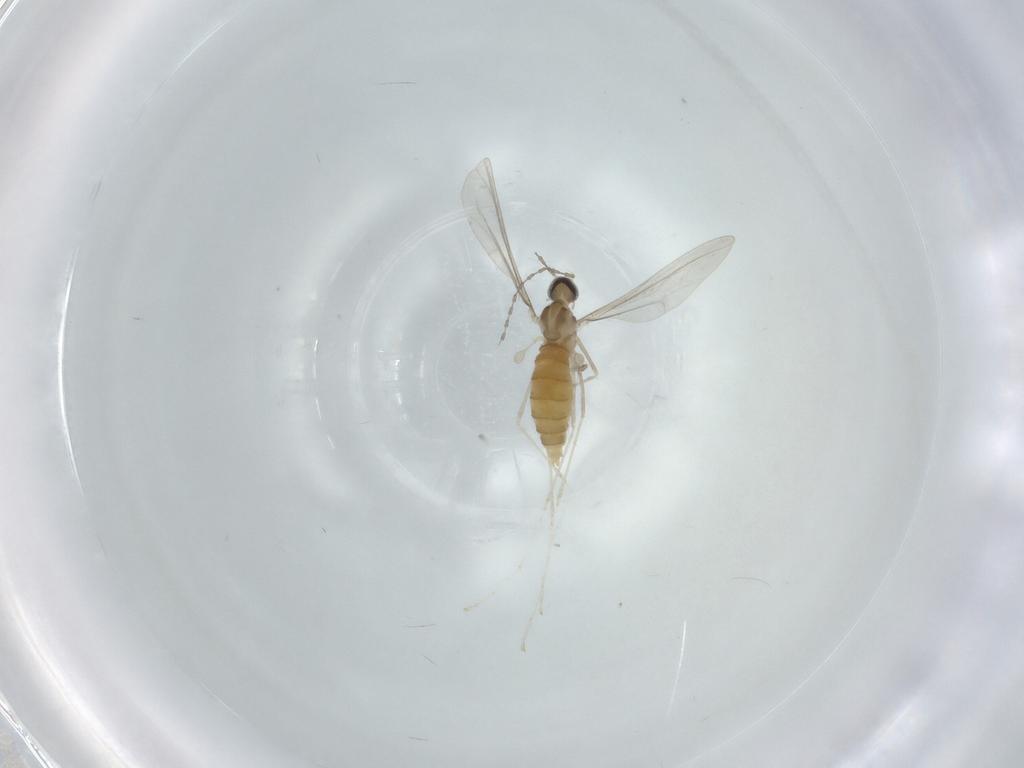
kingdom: Animalia
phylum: Arthropoda
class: Insecta
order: Diptera
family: Cecidomyiidae
